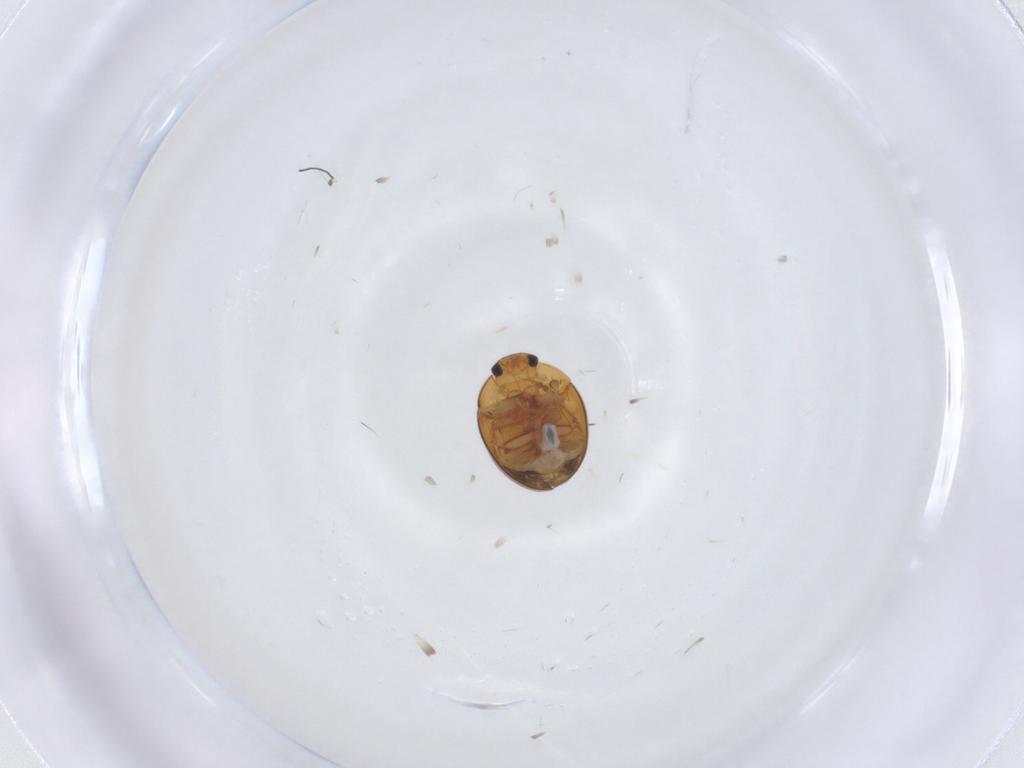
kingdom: Animalia
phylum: Arthropoda
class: Insecta
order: Coleoptera
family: Phalacridae
